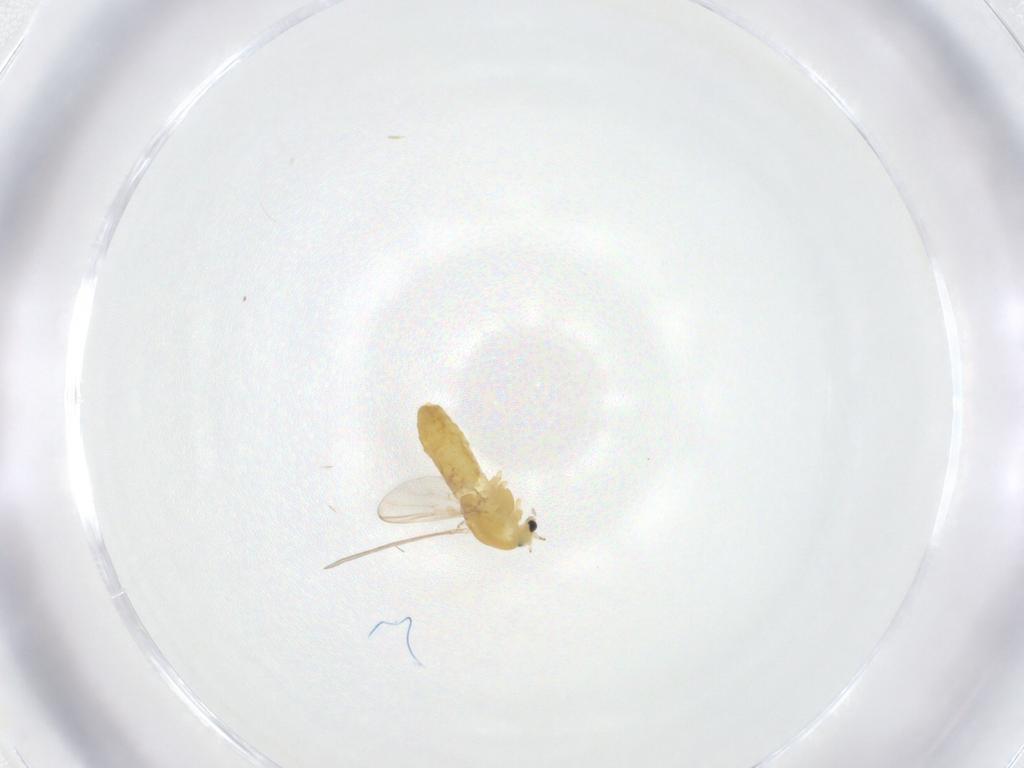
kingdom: Animalia
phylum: Arthropoda
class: Insecta
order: Diptera
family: Chironomidae
